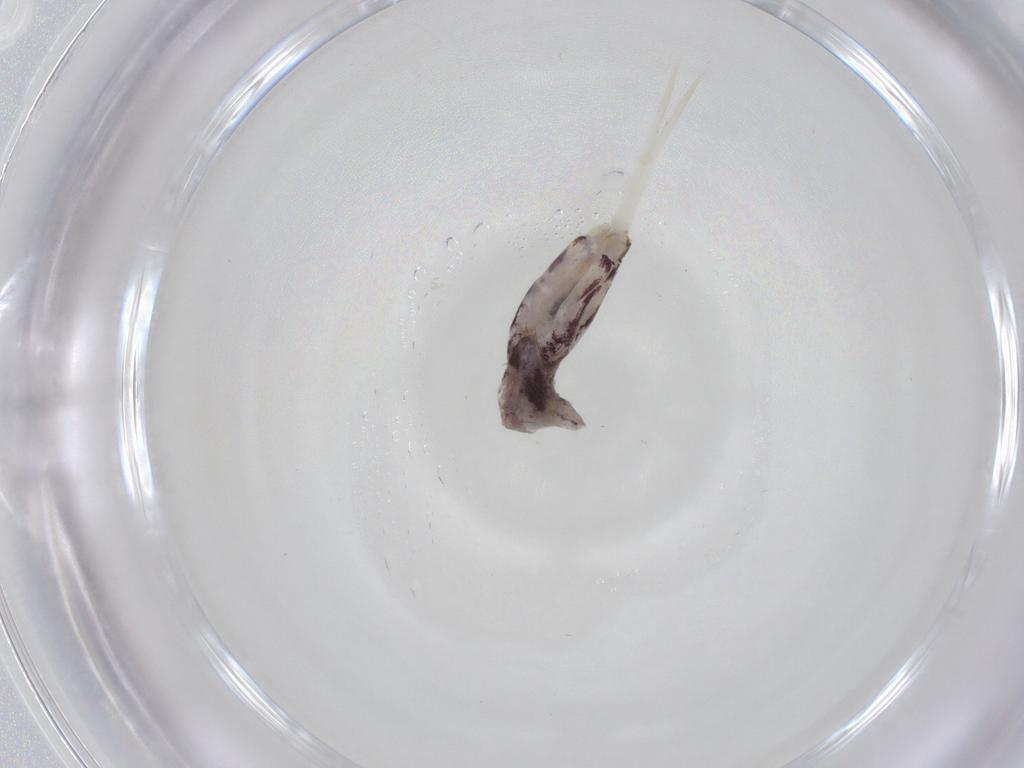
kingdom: Animalia
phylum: Arthropoda
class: Collembola
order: Entomobryomorpha
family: Entomobryidae
